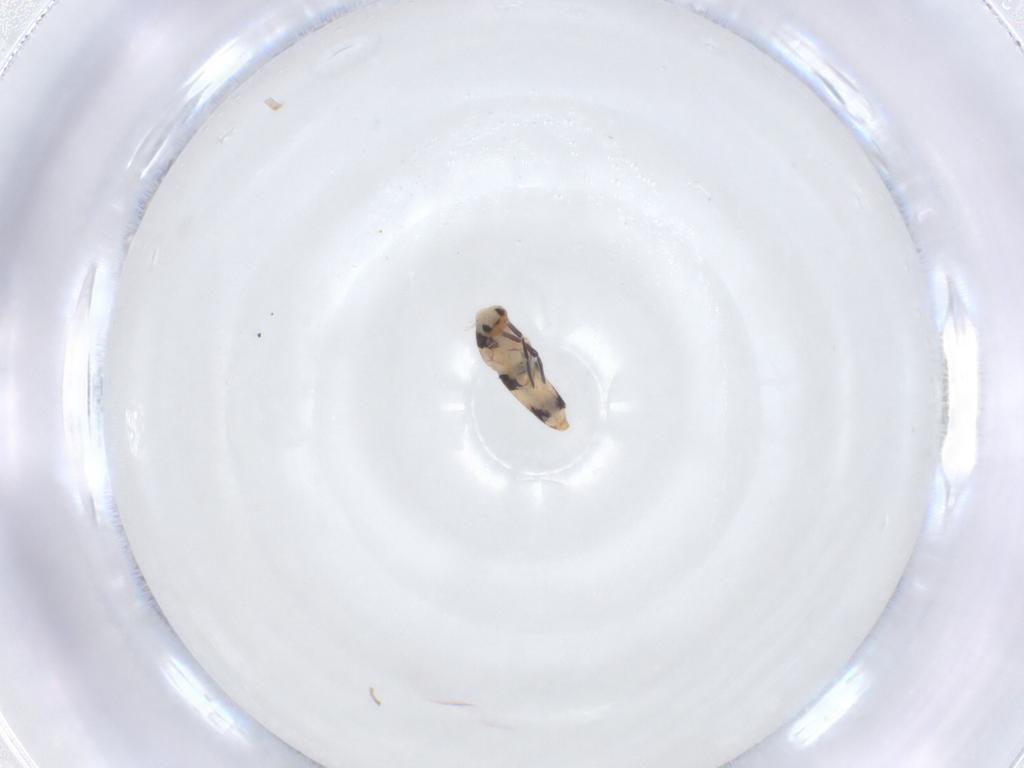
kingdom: Animalia
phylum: Arthropoda
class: Collembola
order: Entomobryomorpha
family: Entomobryidae
